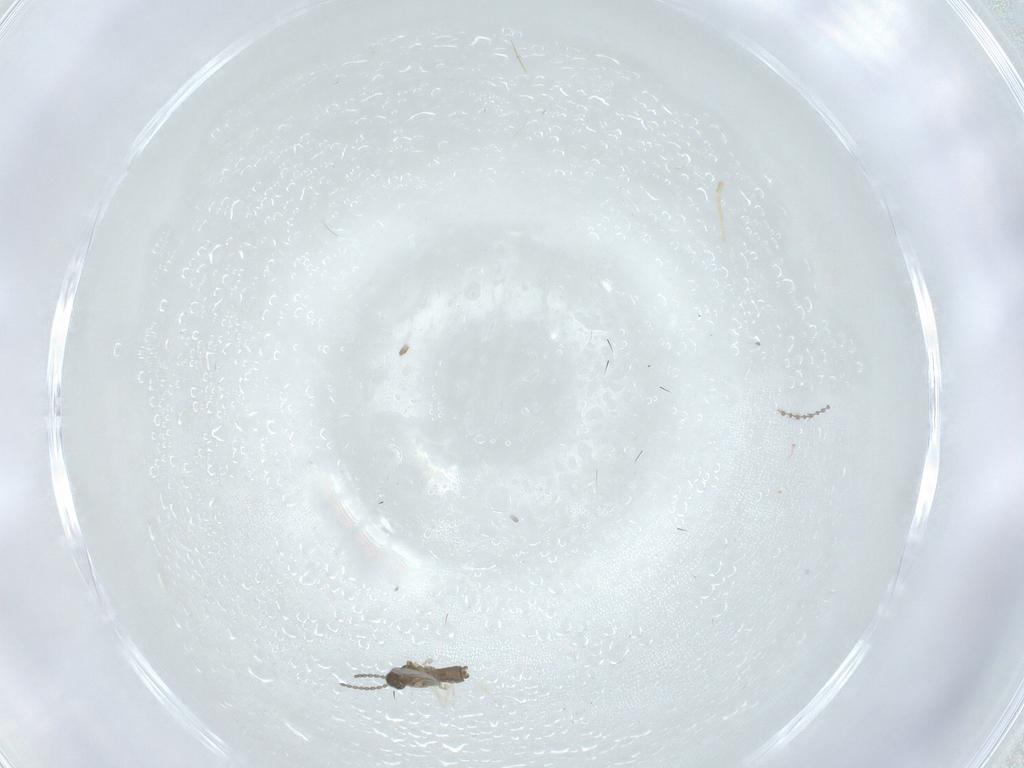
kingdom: Animalia
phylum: Arthropoda
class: Insecta
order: Diptera
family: Cecidomyiidae
